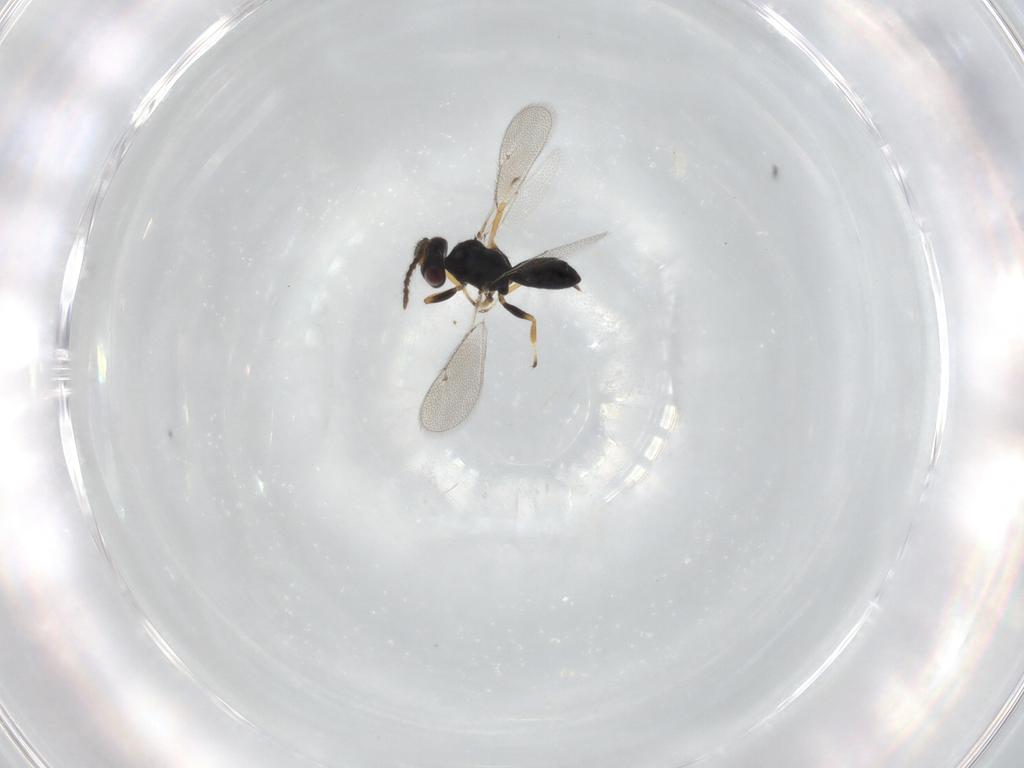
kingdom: Animalia
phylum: Arthropoda
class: Insecta
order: Hymenoptera
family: Eulophidae
